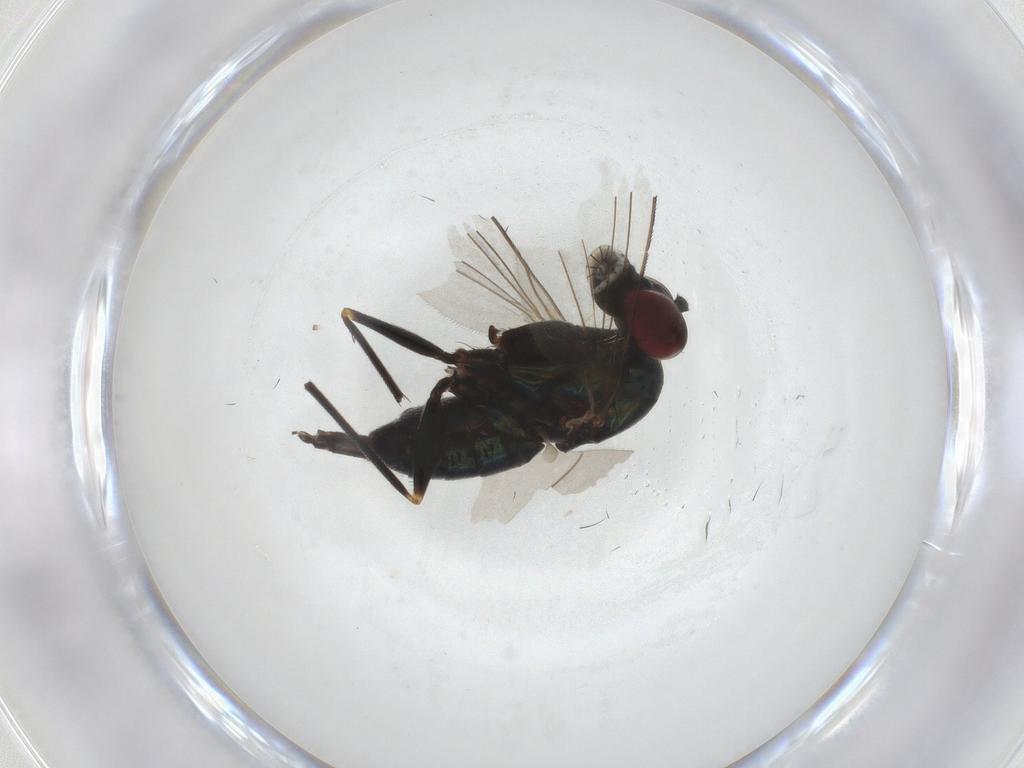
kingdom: Animalia
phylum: Arthropoda
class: Insecta
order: Diptera
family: Dolichopodidae
